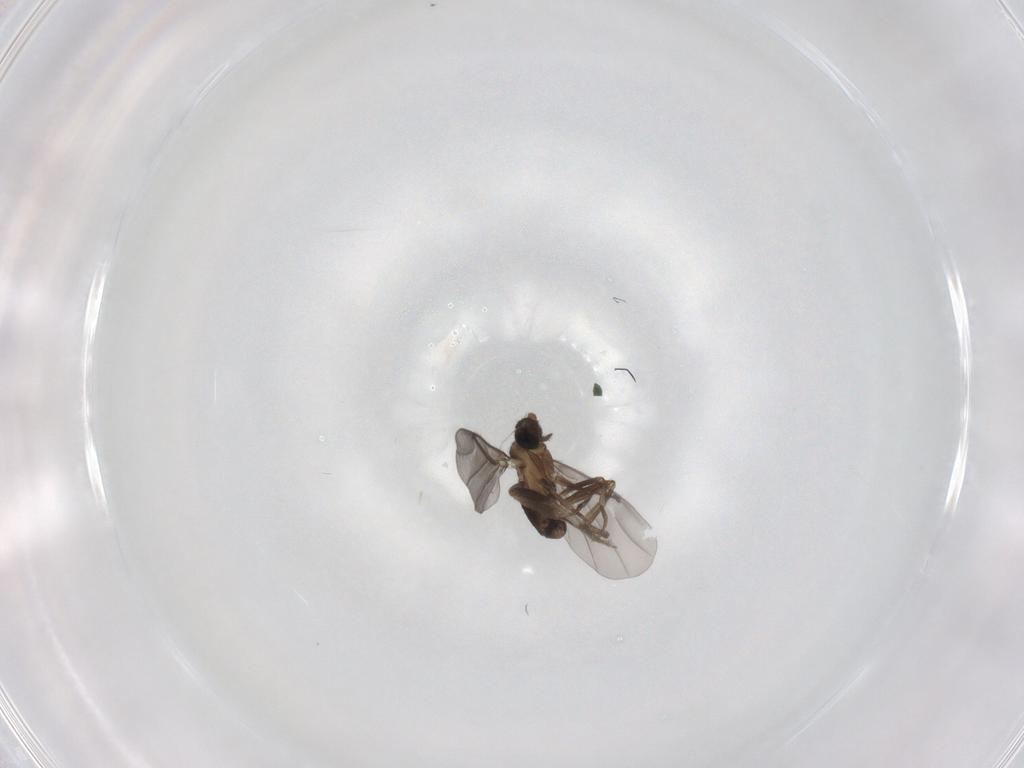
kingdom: Animalia
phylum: Arthropoda
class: Insecta
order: Diptera
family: Phoridae
